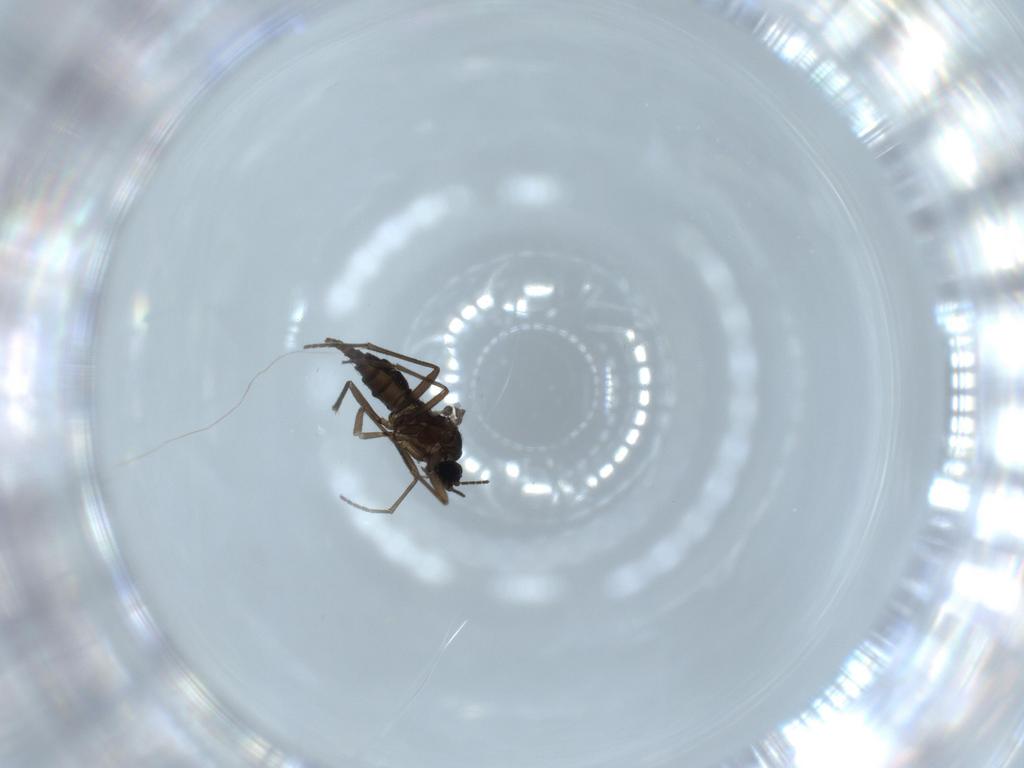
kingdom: Animalia
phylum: Arthropoda
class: Insecta
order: Diptera
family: Sciaridae
